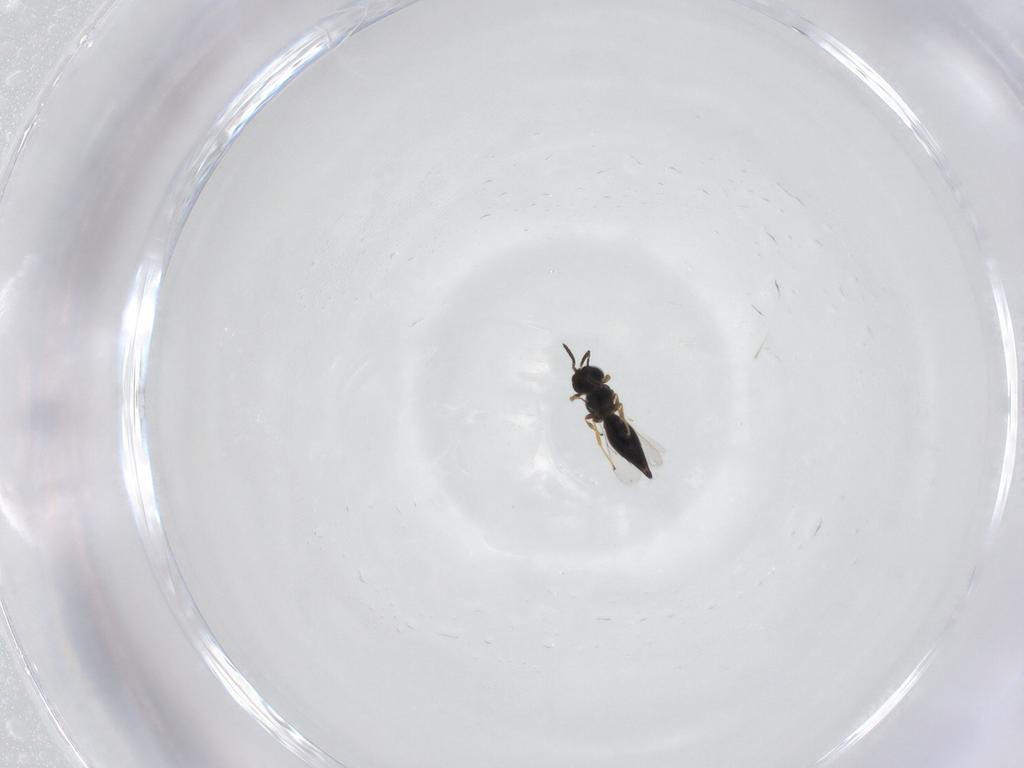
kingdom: Animalia
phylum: Arthropoda
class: Insecta
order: Hymenoptera
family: Scelionidae
